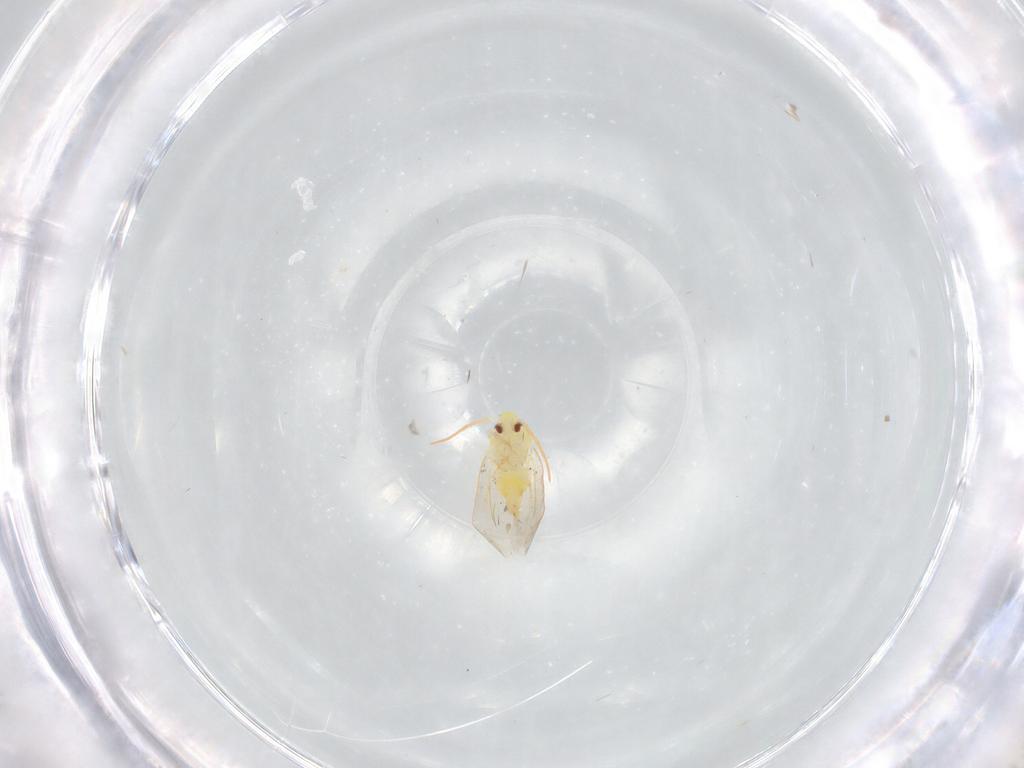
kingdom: Animalia
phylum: Arthropoda
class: Insecta
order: Hemiptera
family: Aleyrodidae
